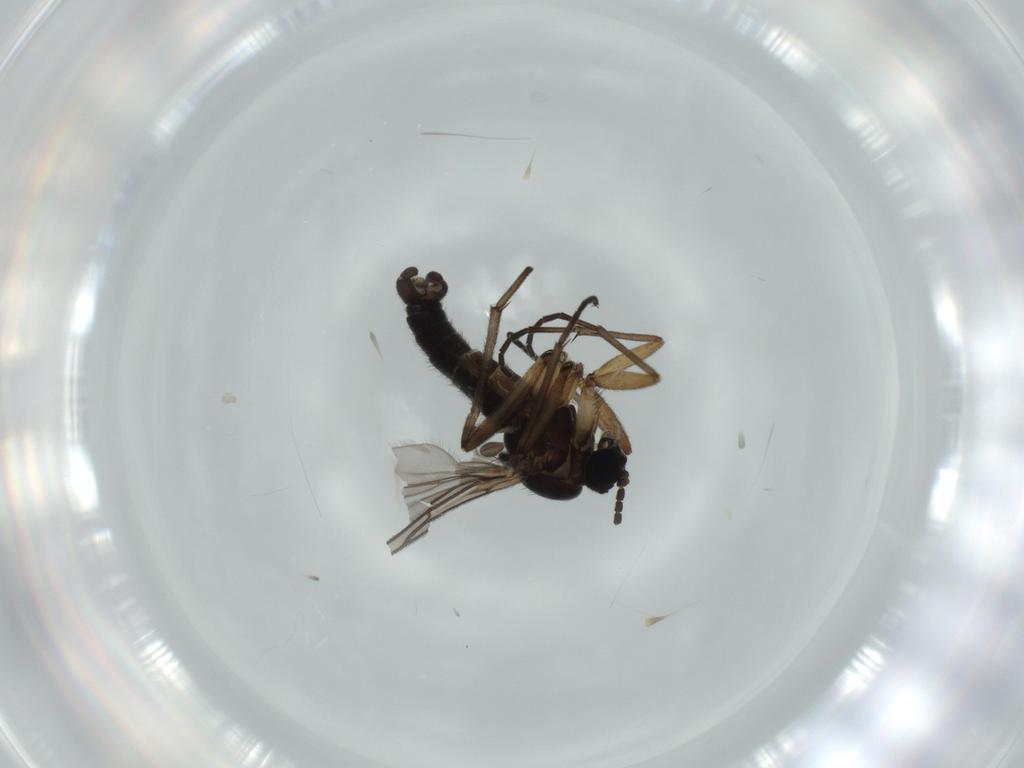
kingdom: Animalia
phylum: Arthropoda
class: Insecta
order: Diptera
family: Sciaridae
